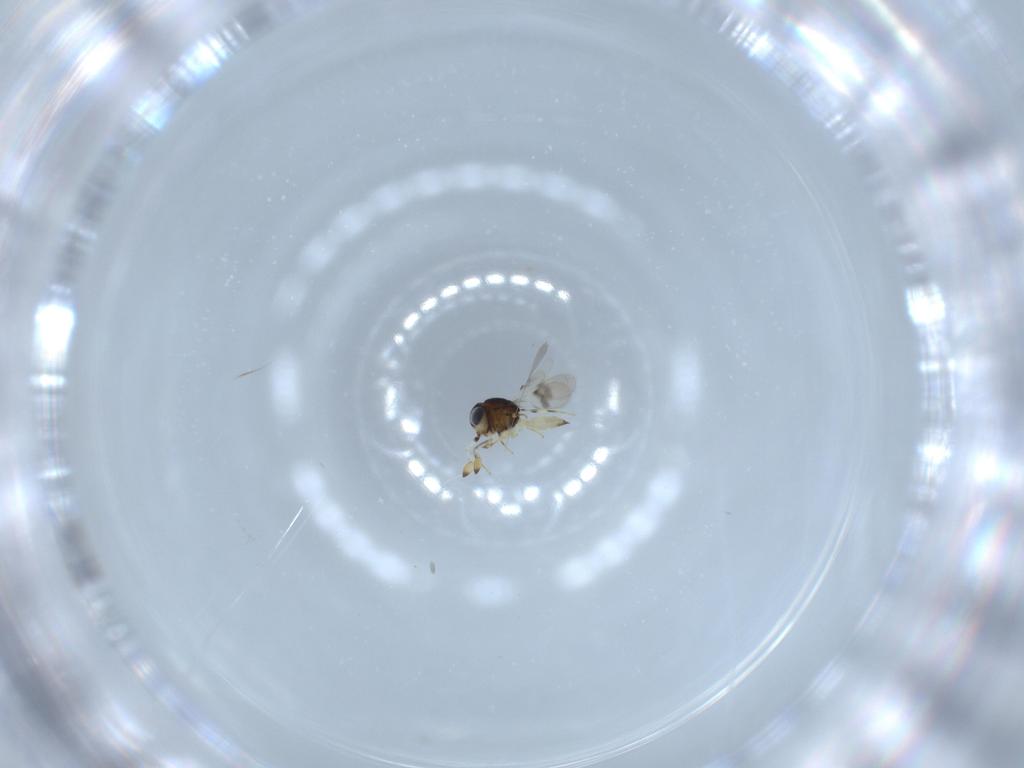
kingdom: Animalia
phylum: Arthropoda
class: Insecta
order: Hymenoptera
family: Scelionidae
